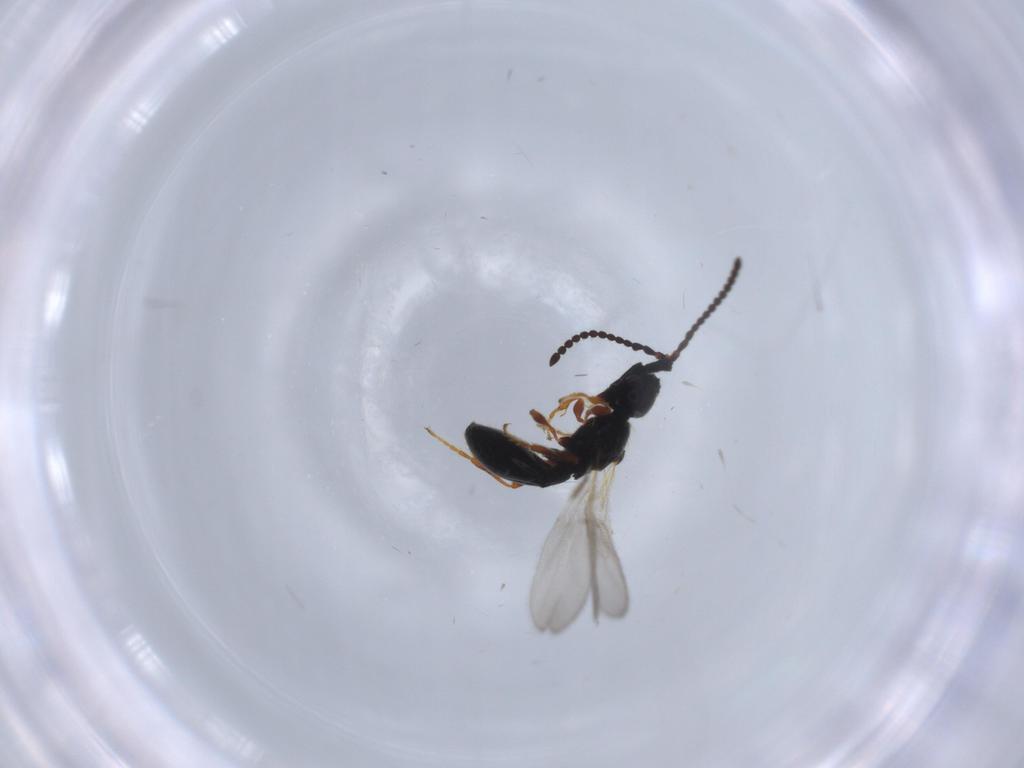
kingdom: Animalia
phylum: Arthropoda
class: Insecta
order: Hymenoptera
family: Diapriidae
